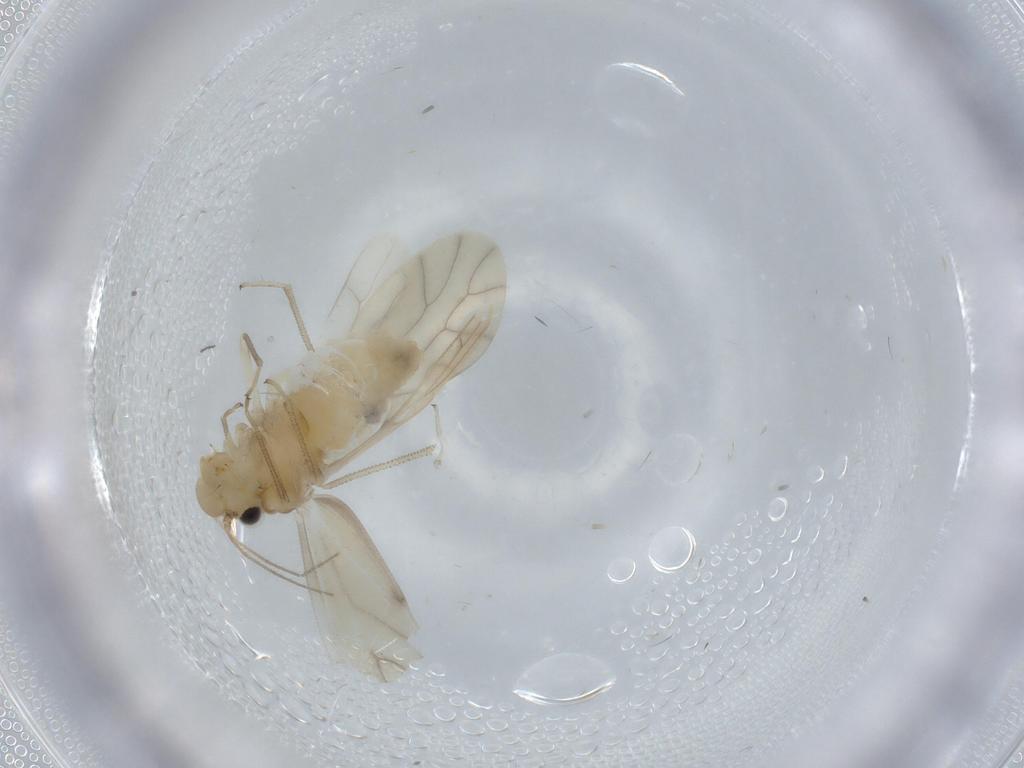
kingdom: Animalia
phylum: Arthropoda
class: Insecta
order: Psocodea
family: Caeciliusidae
